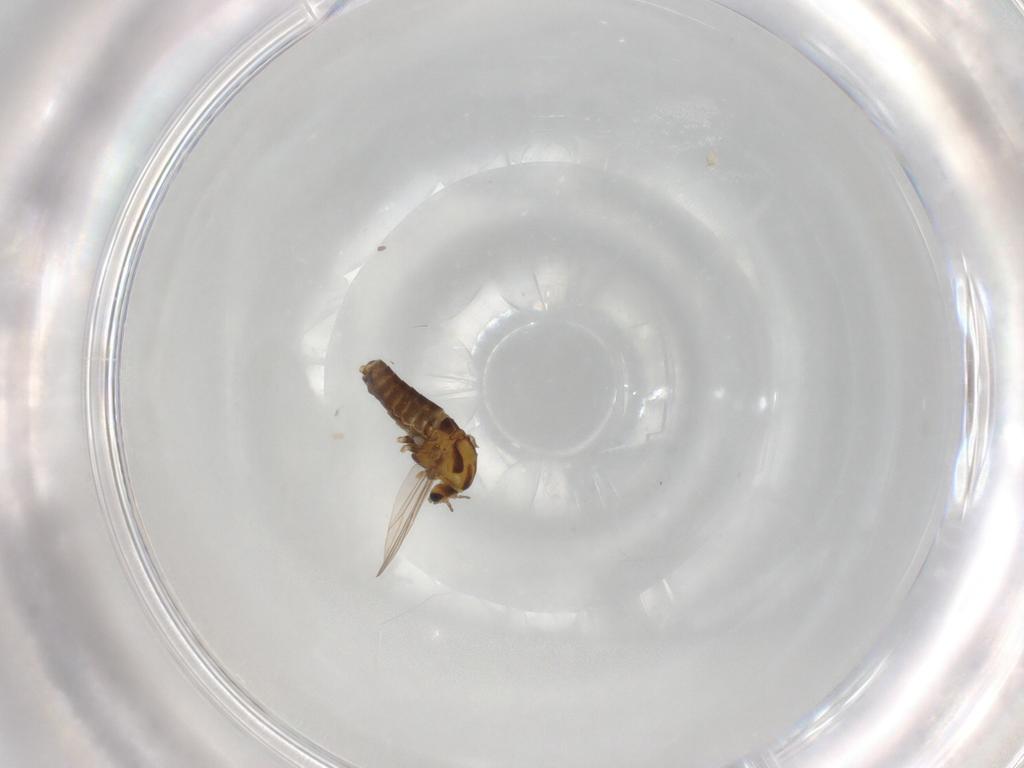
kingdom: Animalia
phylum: Arthropoda
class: Insecta
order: Diptera
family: Chironomidae
